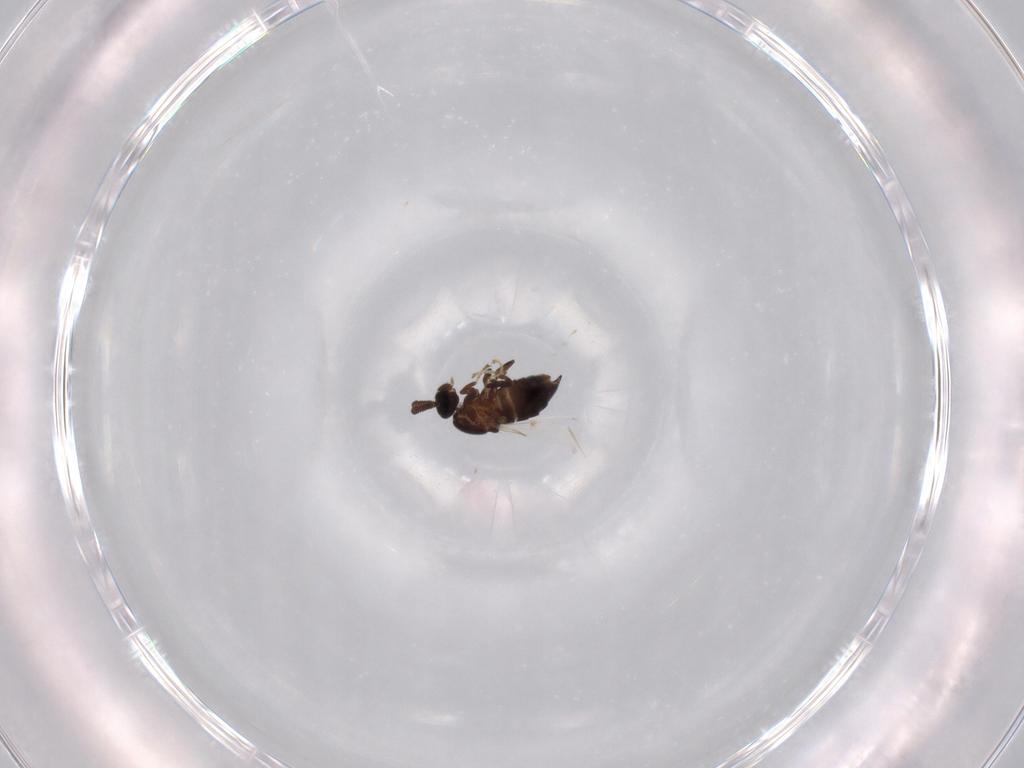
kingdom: Animalia
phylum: Arthropoda
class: Insecta
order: Diptera
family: Scatopsidae
